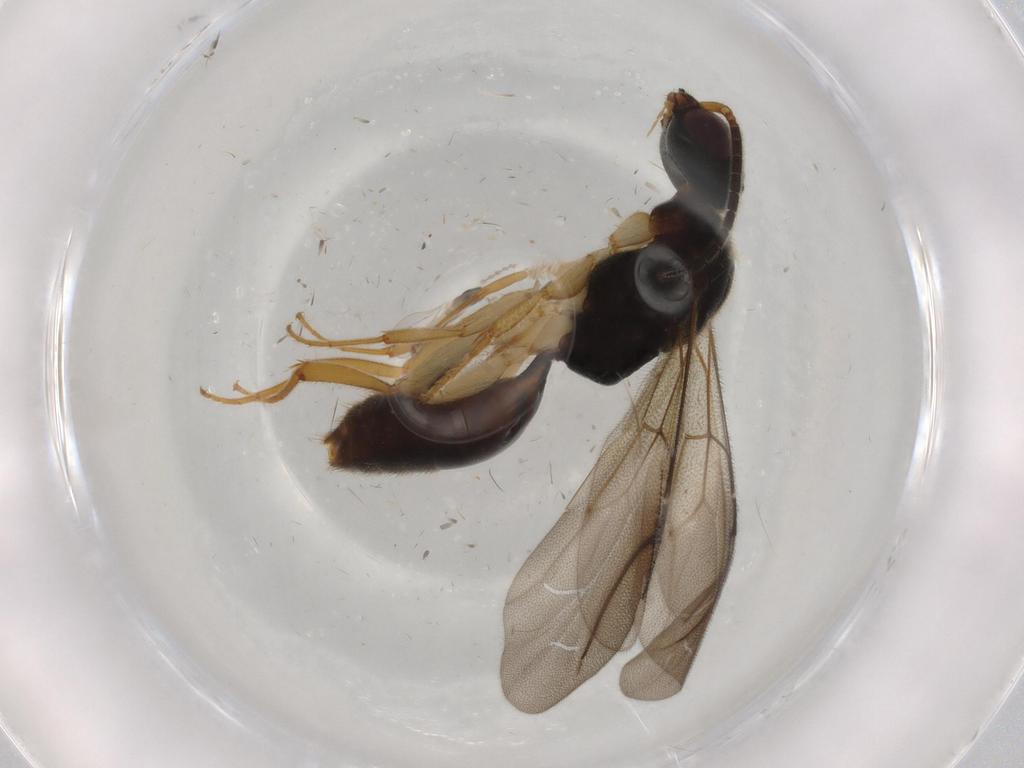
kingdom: Animalia
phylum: Arthropoda
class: Insecta
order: Hymenoptera
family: Bethylidae
